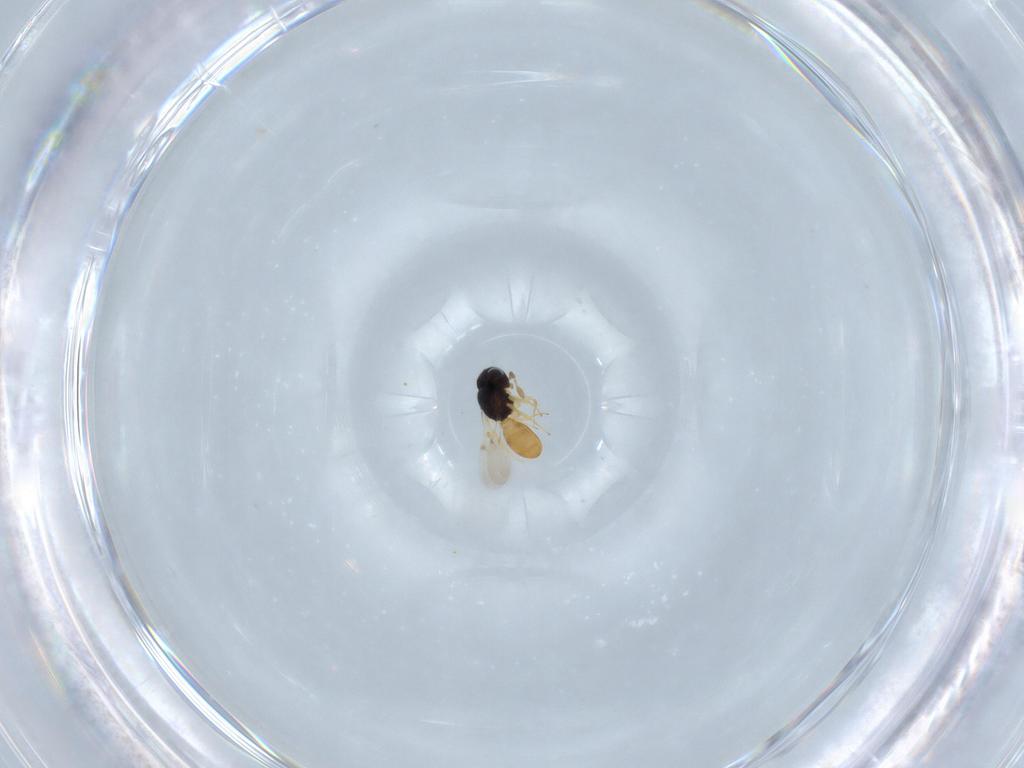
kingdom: Animalia
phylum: Arthropoda
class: Insecta
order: Hymenoptera
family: Scelionidae
